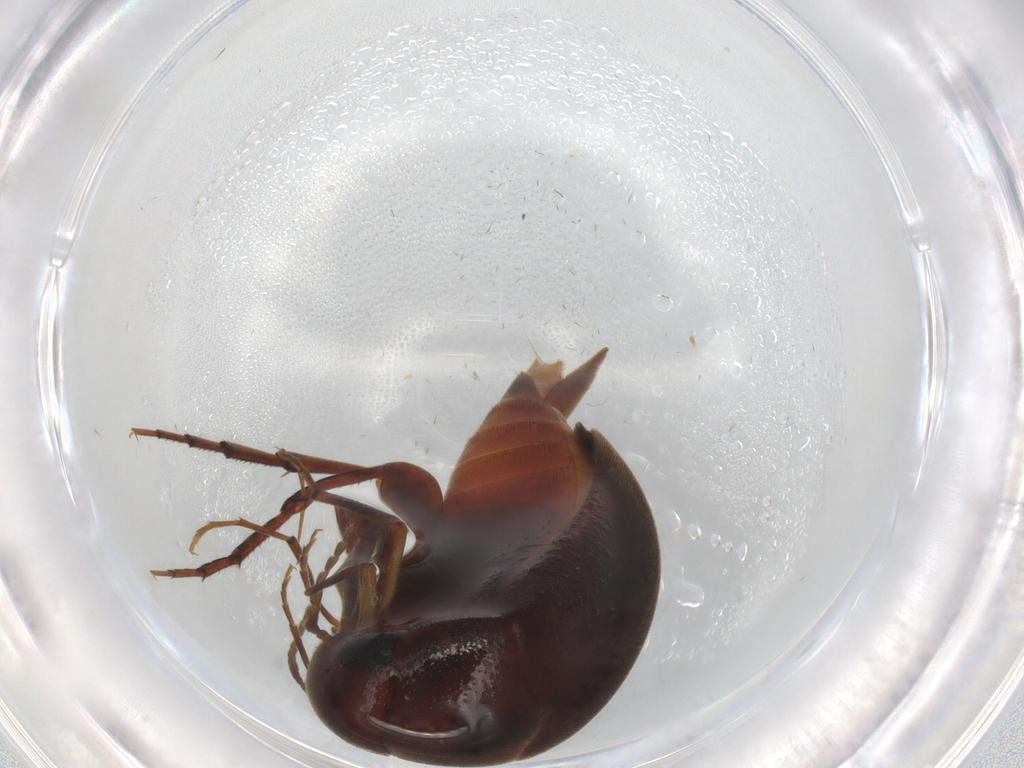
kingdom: Animalia
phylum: Arthropoda
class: Insecta
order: Coleoptera
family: Mordellidae
